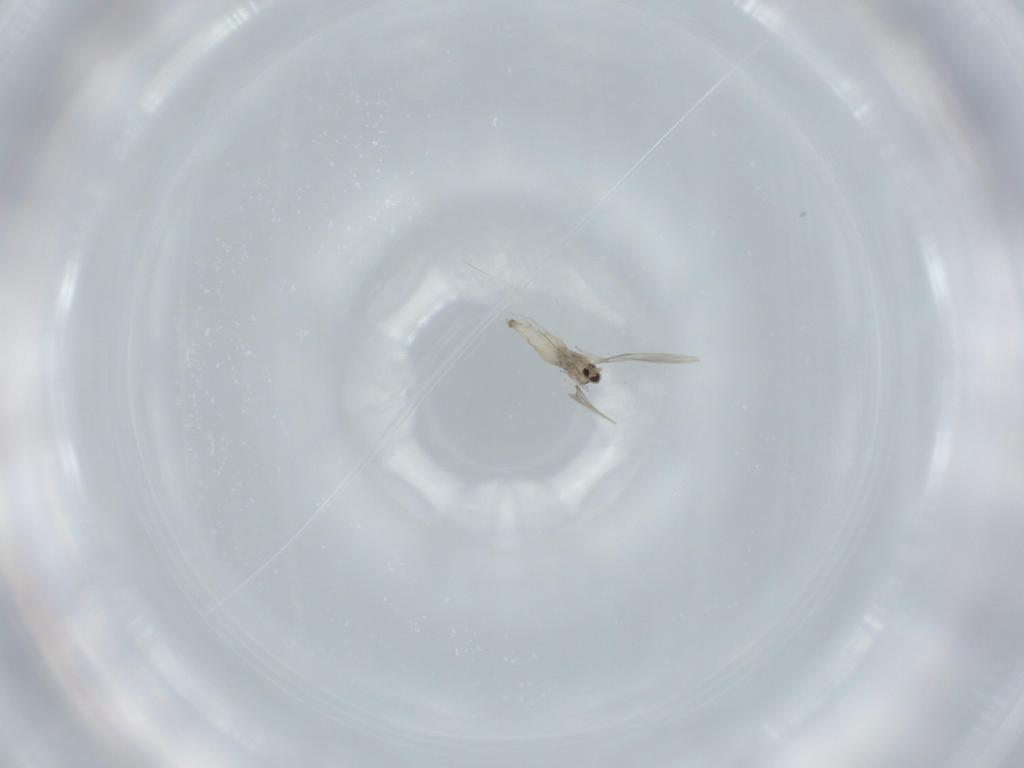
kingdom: Animalia
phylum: Arthropoda
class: Insecta
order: Diptera
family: Cecidomyiidae
